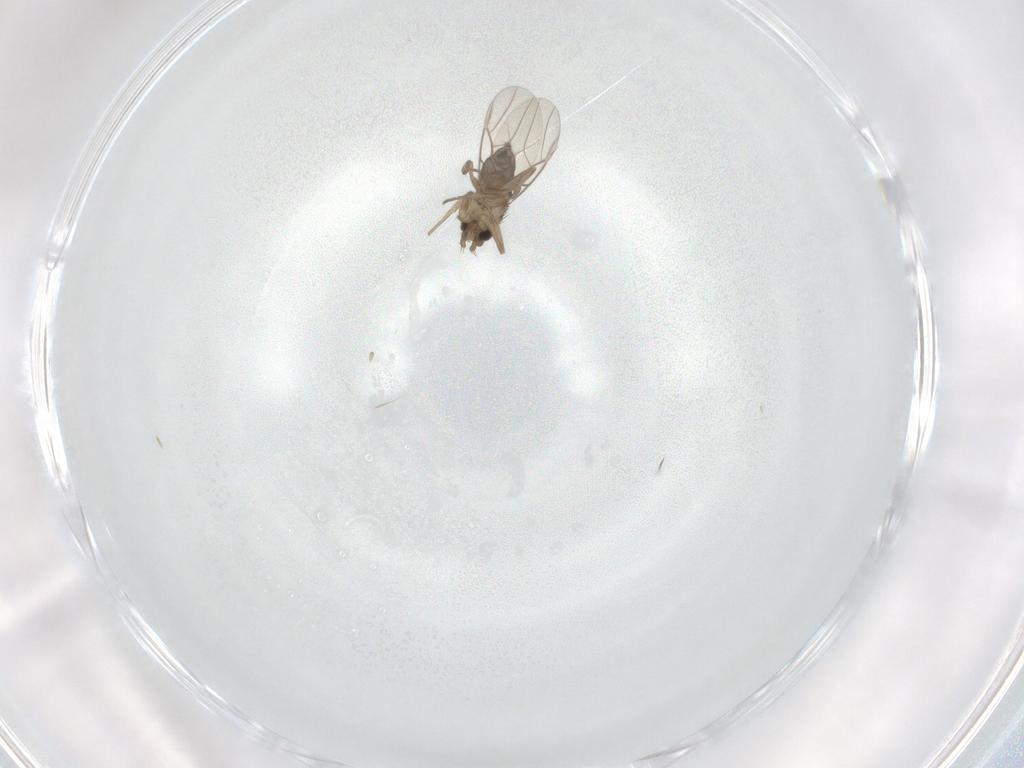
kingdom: Animalia
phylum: Arthropoda
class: Insecta
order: Diptera
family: Phoridae
